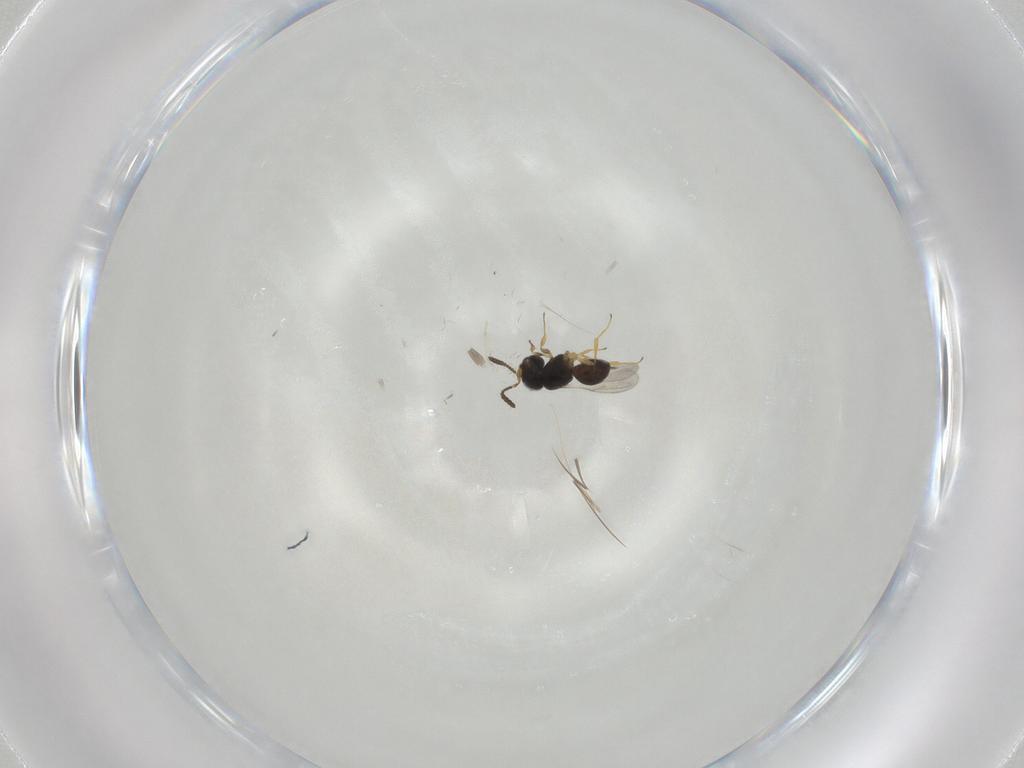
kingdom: Animalia
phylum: Arthropoda
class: Insecta
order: Hymenoptera
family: Scelionidae
